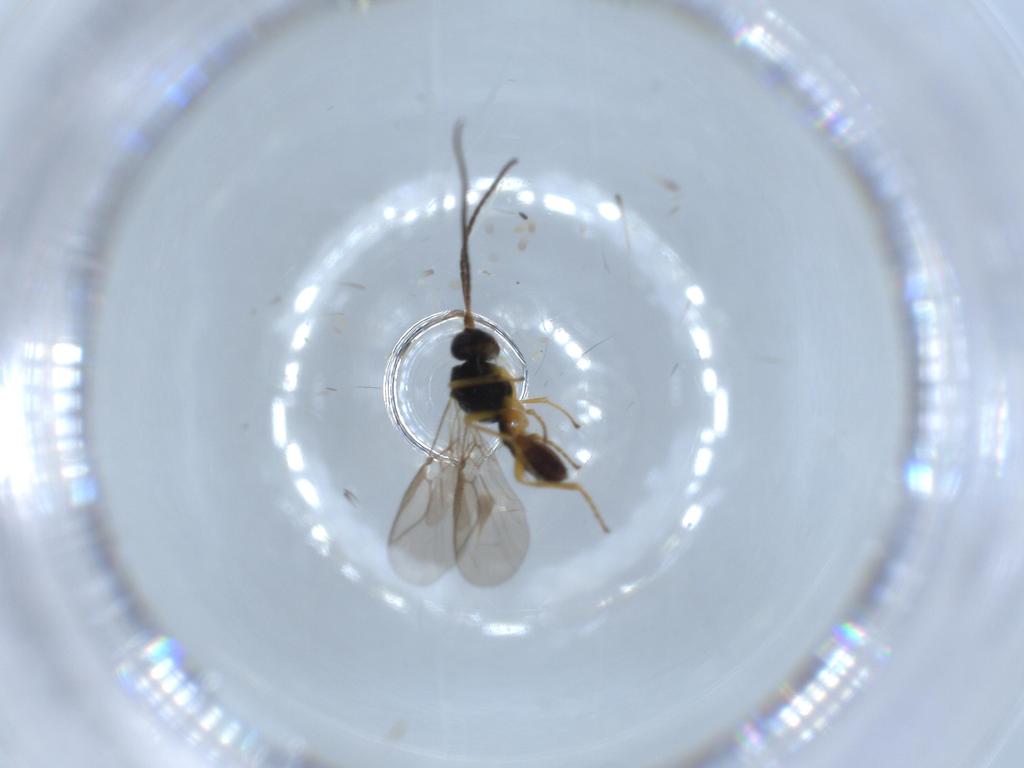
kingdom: Animalia
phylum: Arthropoda
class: Insecta
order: Hymenoptera
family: Braconidae
